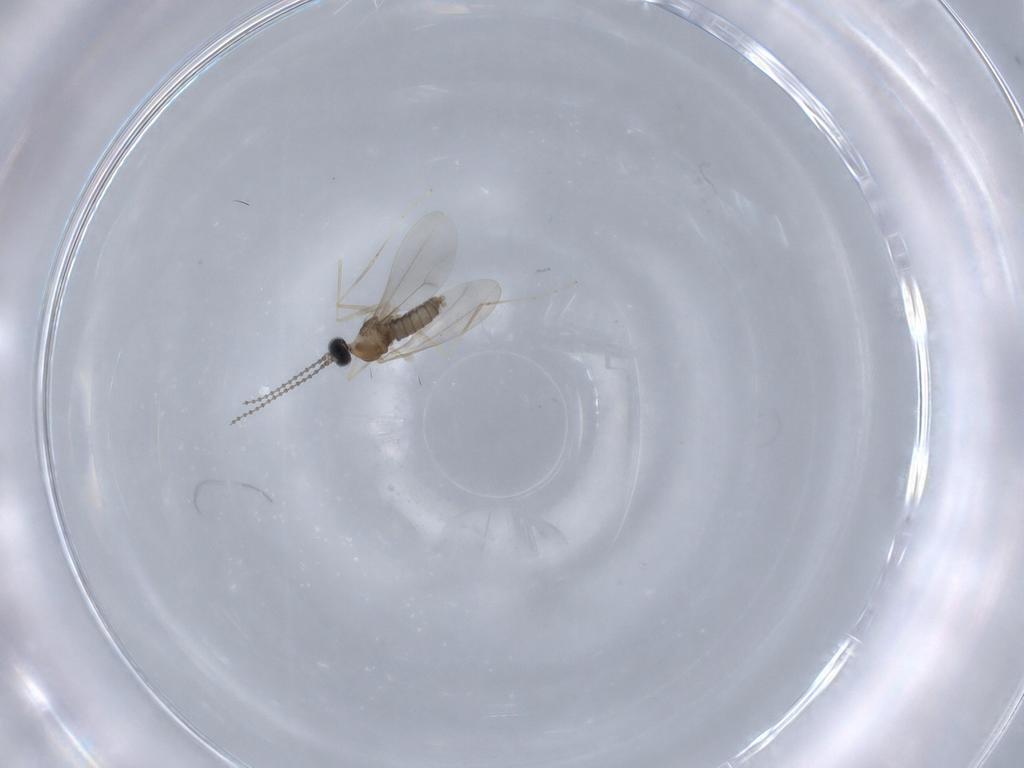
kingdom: Animalia
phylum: Arthropoda
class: Insecta
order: Diptera
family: Cecidomyiidae
